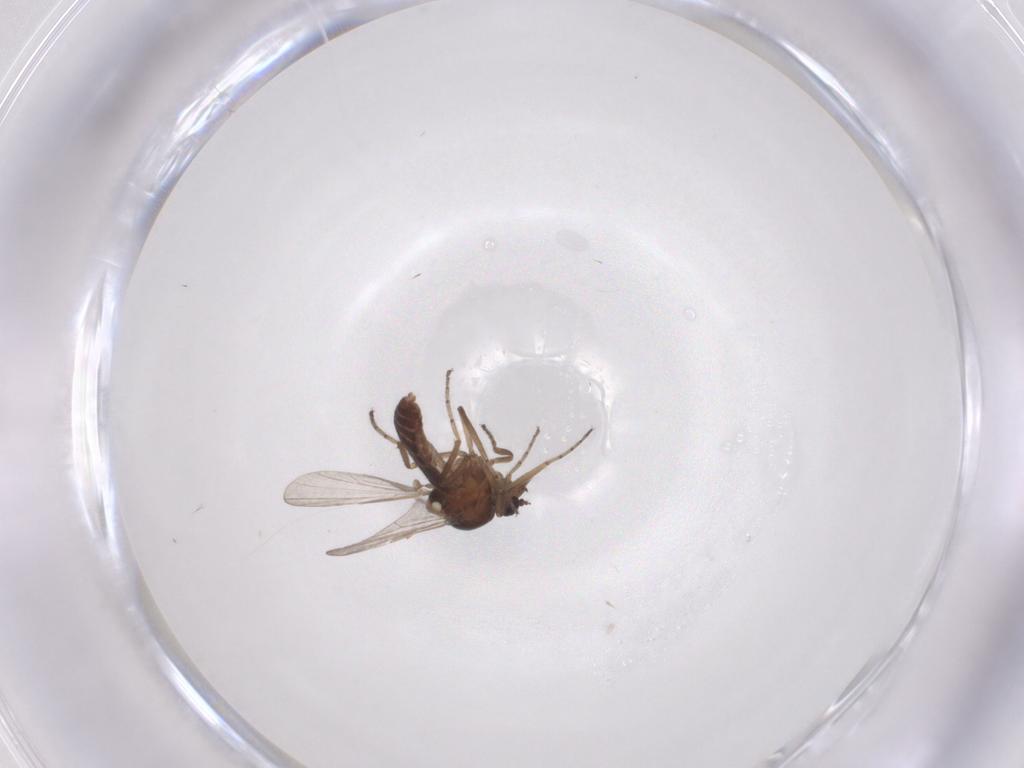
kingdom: Animalia
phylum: Arthropoda
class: Insecta
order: Diptera
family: Ceratopogonidae
